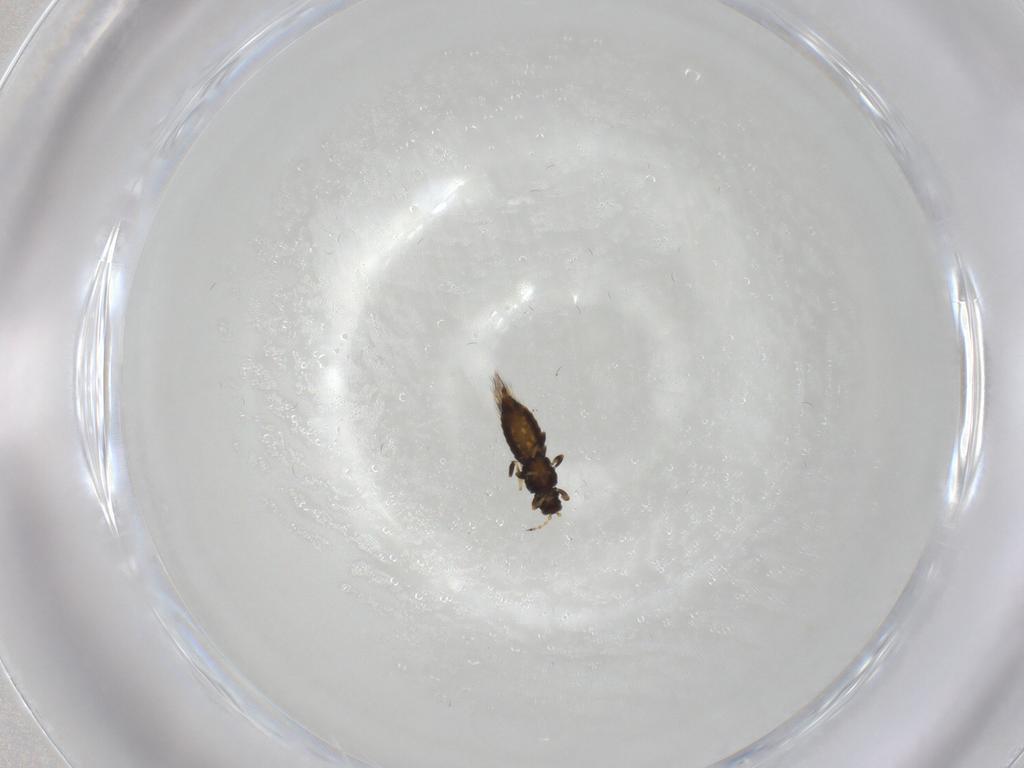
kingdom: Animalia
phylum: Arthropoda
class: Insecta
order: Thysanoptera
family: Thripidae
